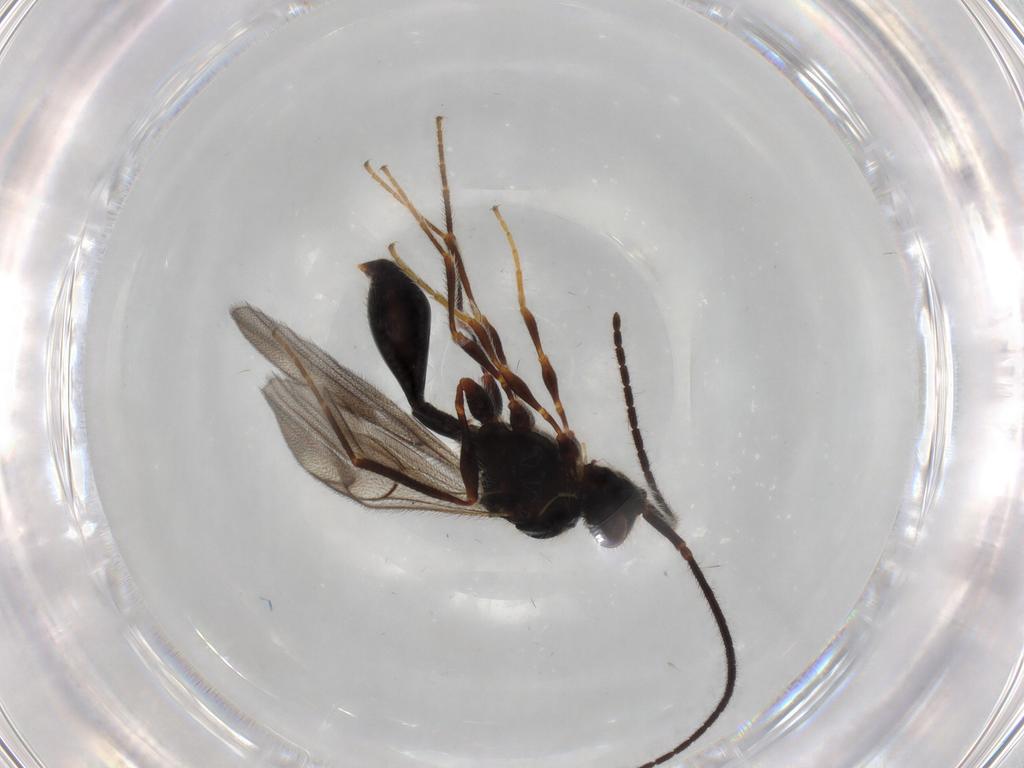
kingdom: Animalia
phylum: Arthropoda
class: Insecta
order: Hymenoptera
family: Diapriidae
